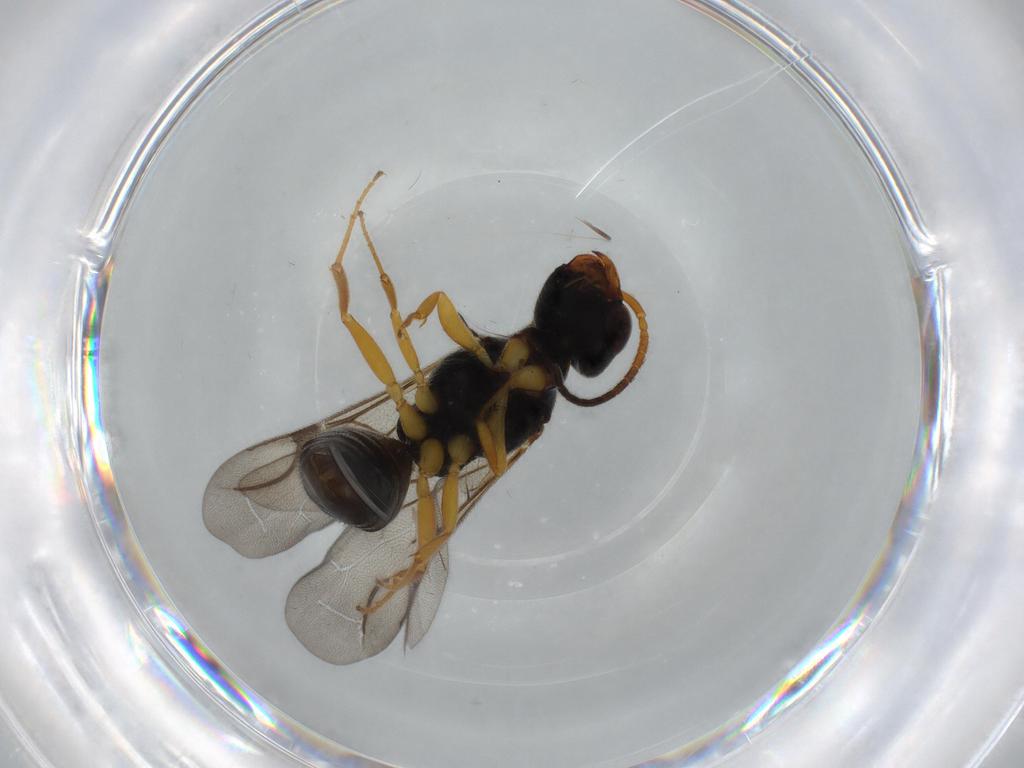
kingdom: Animalia
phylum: Arthropoda
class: Insecta
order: Hymenoptera
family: Bethylidae
